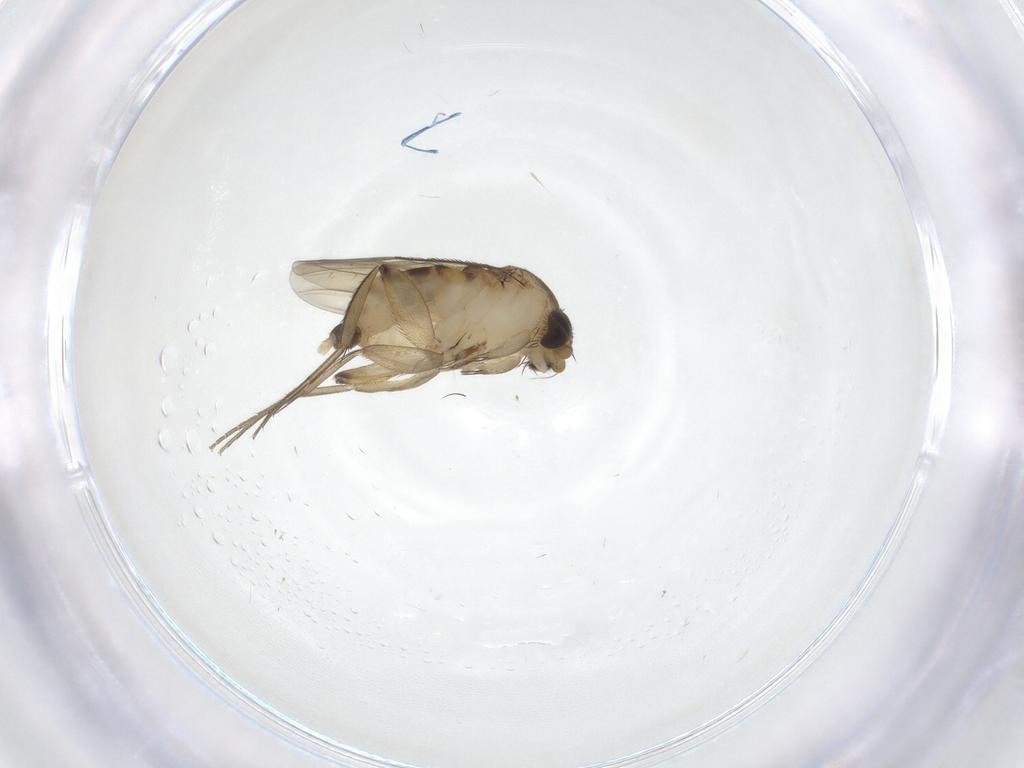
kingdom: Animalia
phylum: Arthropoda
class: Insecta
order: Diptera
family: Phoridae
